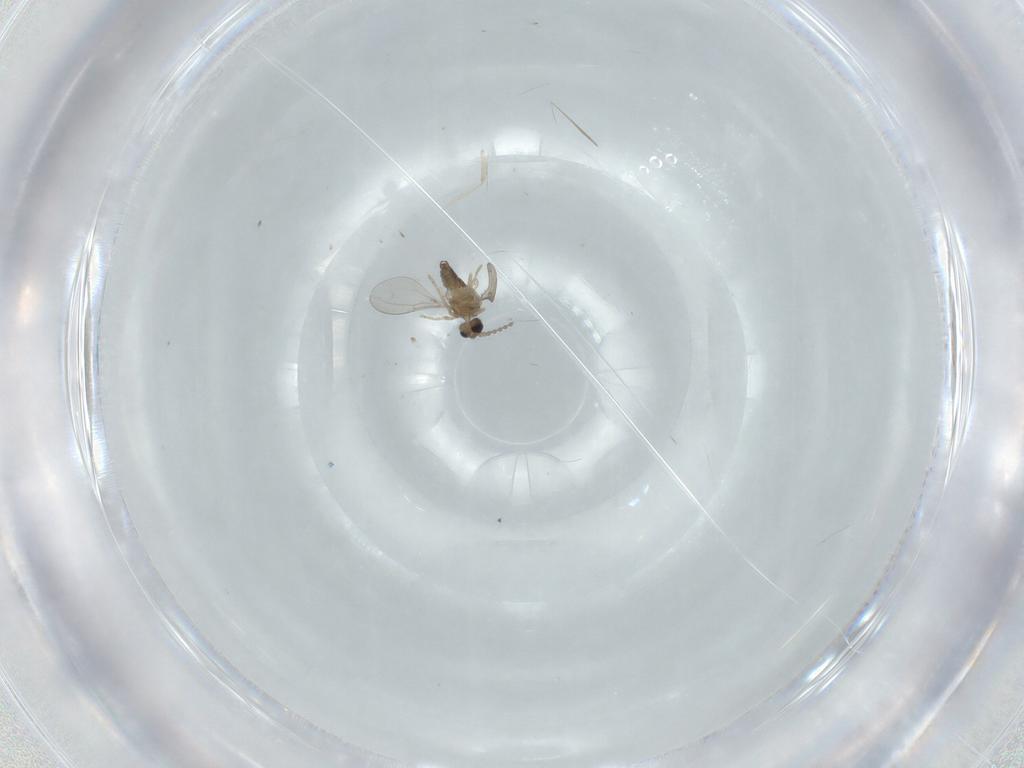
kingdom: Animalia
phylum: Arthropoda
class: Insecta
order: Diptera
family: Cecidomyiidae
